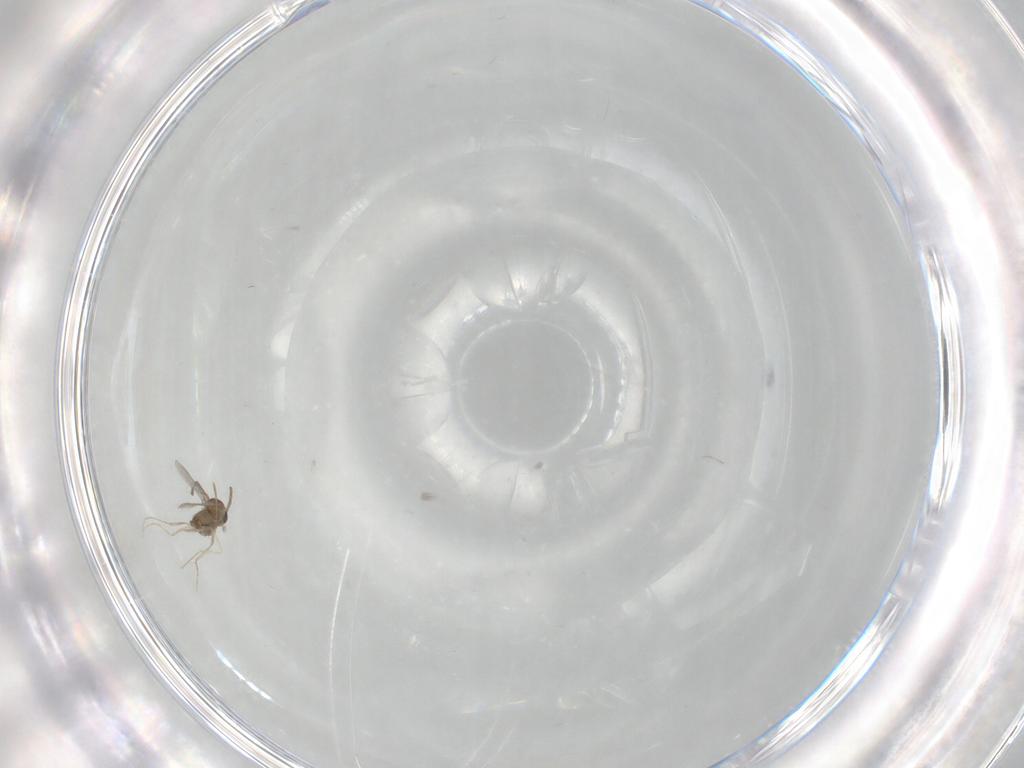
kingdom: Animalia
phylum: Arthropoda
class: Insecta
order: Diptera
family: Cecidomyiidae
